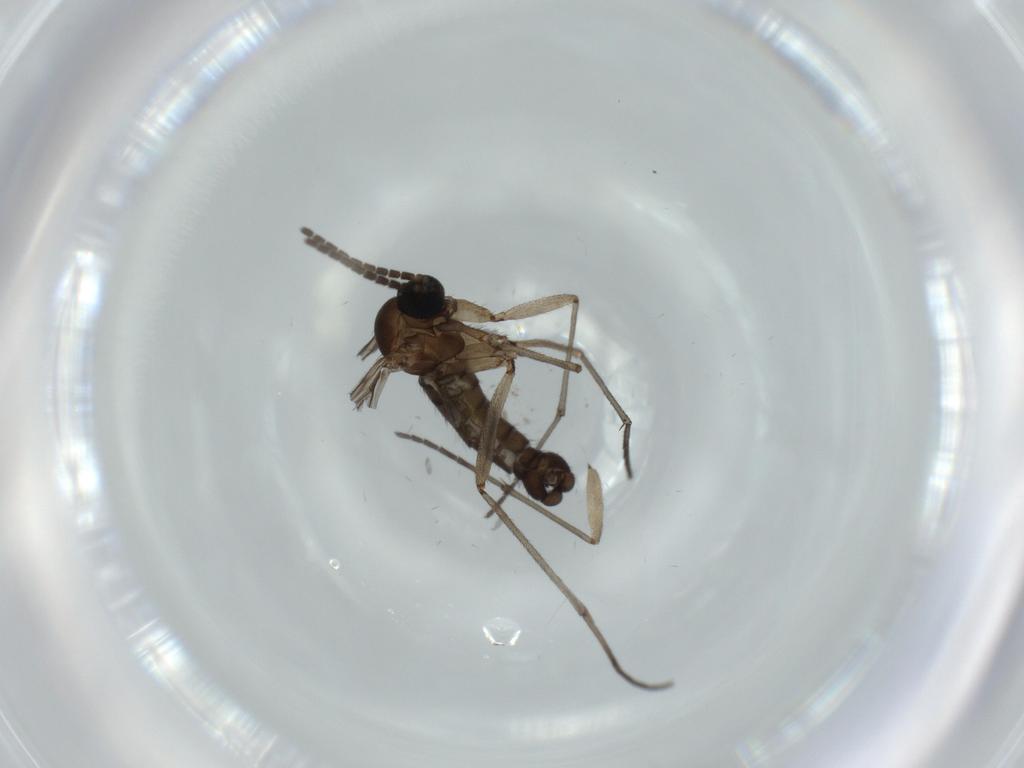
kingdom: Animalia
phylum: Arthropoda
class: Insecta
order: Diptera
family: Sciaridae
